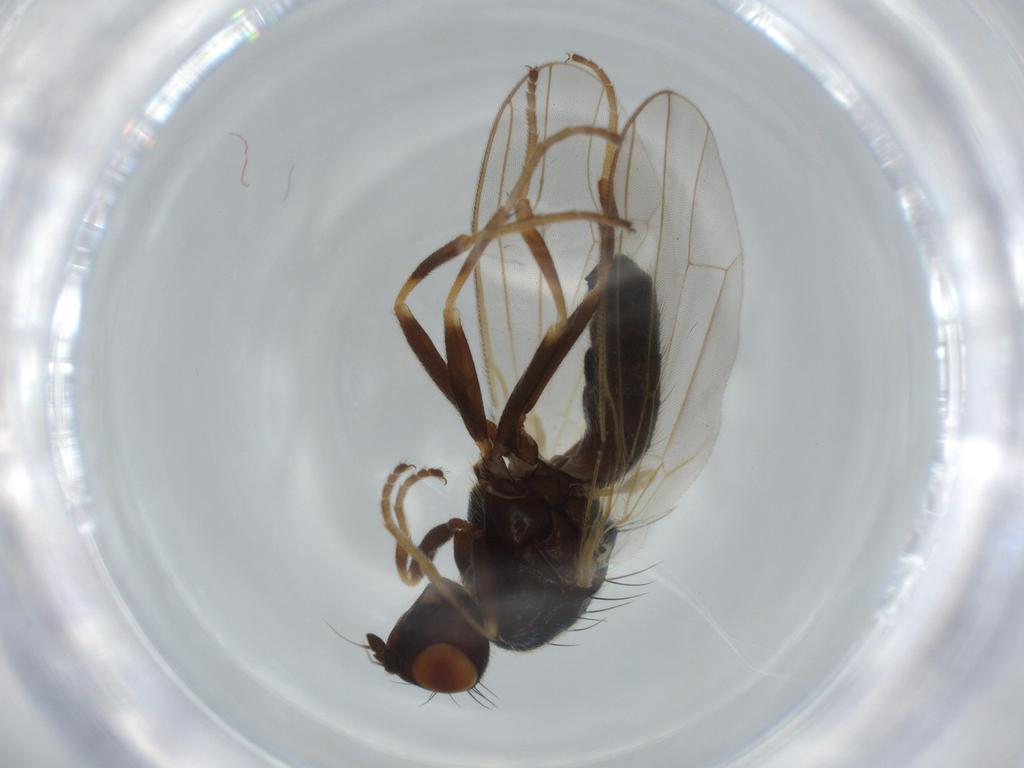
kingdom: Animalia
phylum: Arthropoda
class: Insecta
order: Diptera
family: Psilidae
